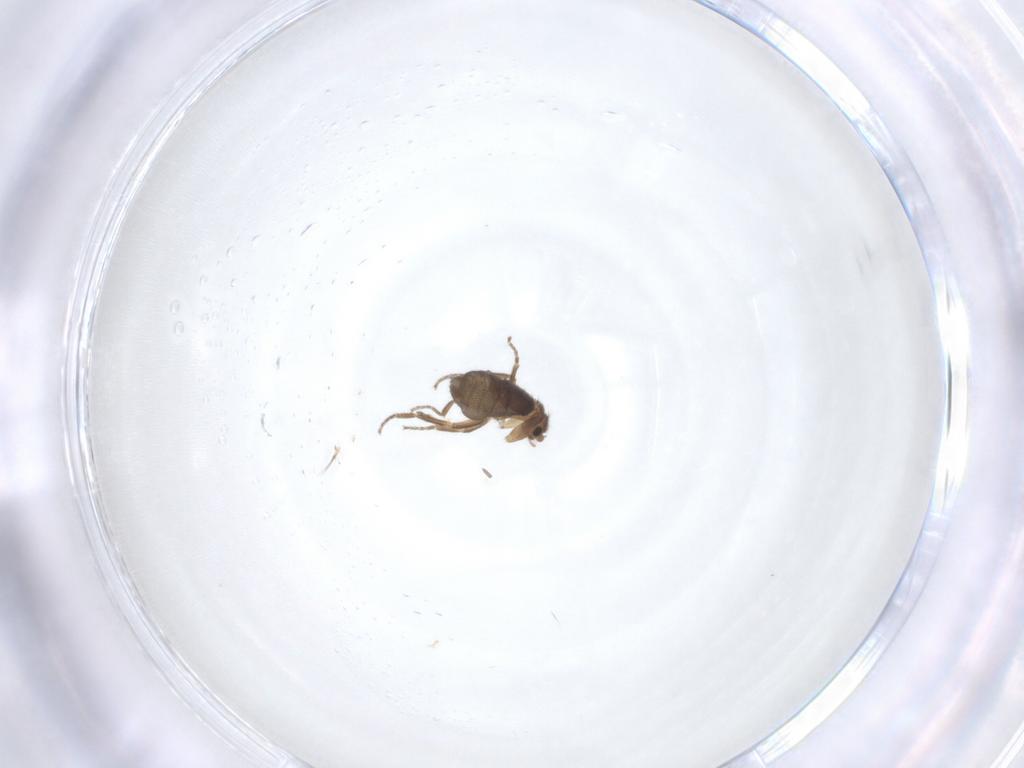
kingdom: Animalia
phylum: Arthropoda
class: Insecta
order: Diptera
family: Phoridae
